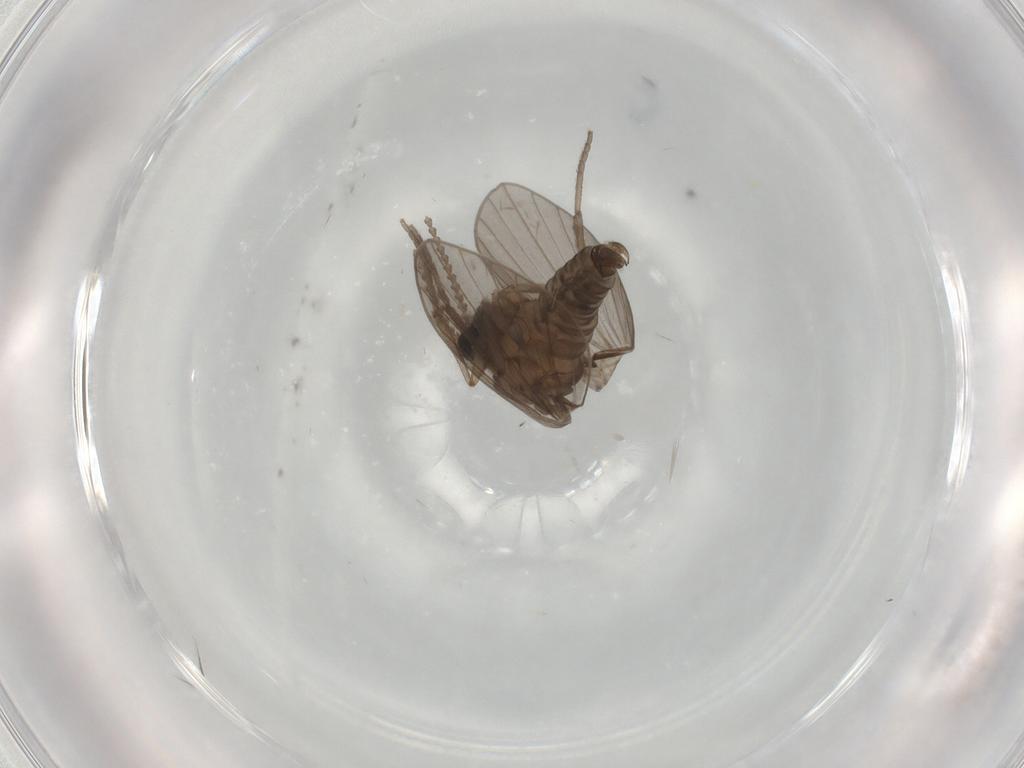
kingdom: Animalia
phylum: Arthropoda
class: Insecta
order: Diptera
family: Psychodidae
